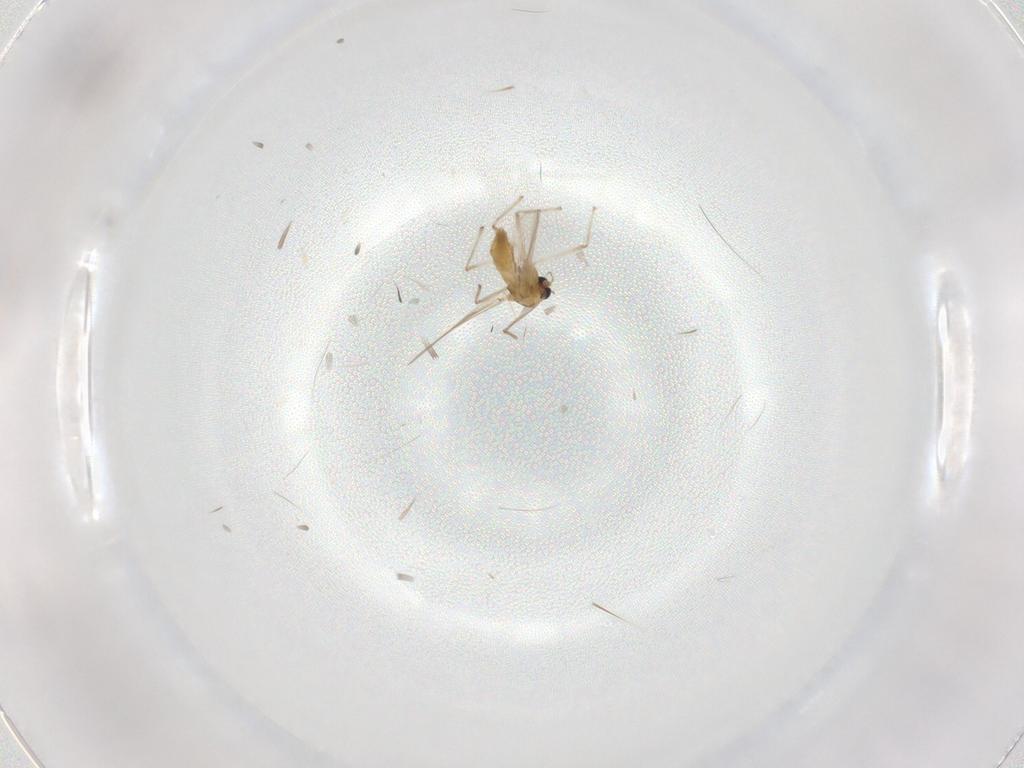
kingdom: Animalia
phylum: Arthropoda
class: Insecta
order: Diptera
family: Chironomidae
